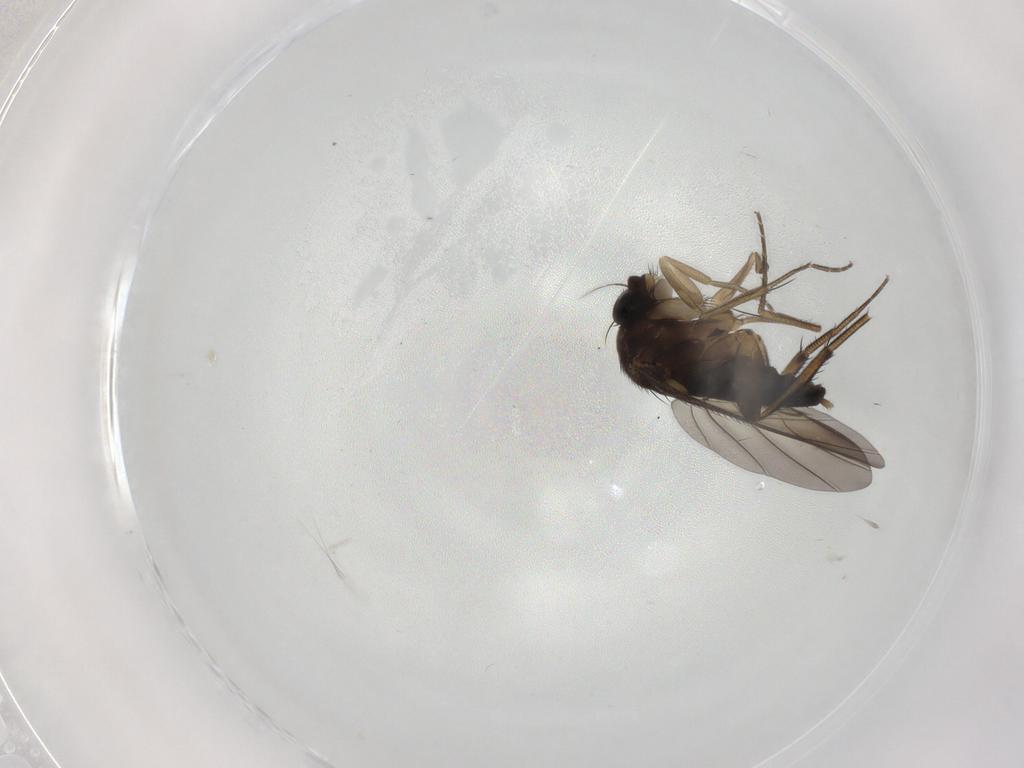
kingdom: Animalia
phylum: Arthropoda
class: Insecta
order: Diptera
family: Phoridae
